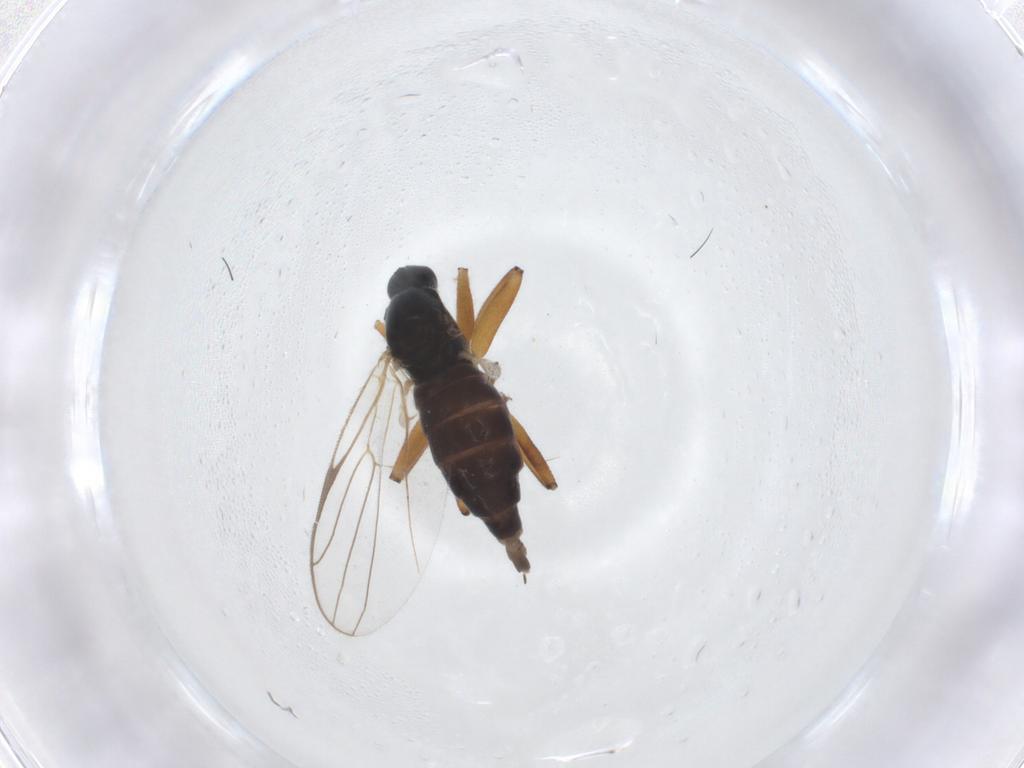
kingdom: Animalia
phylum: Arthropoda
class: Insecta
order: Diptera
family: Hybotidae
